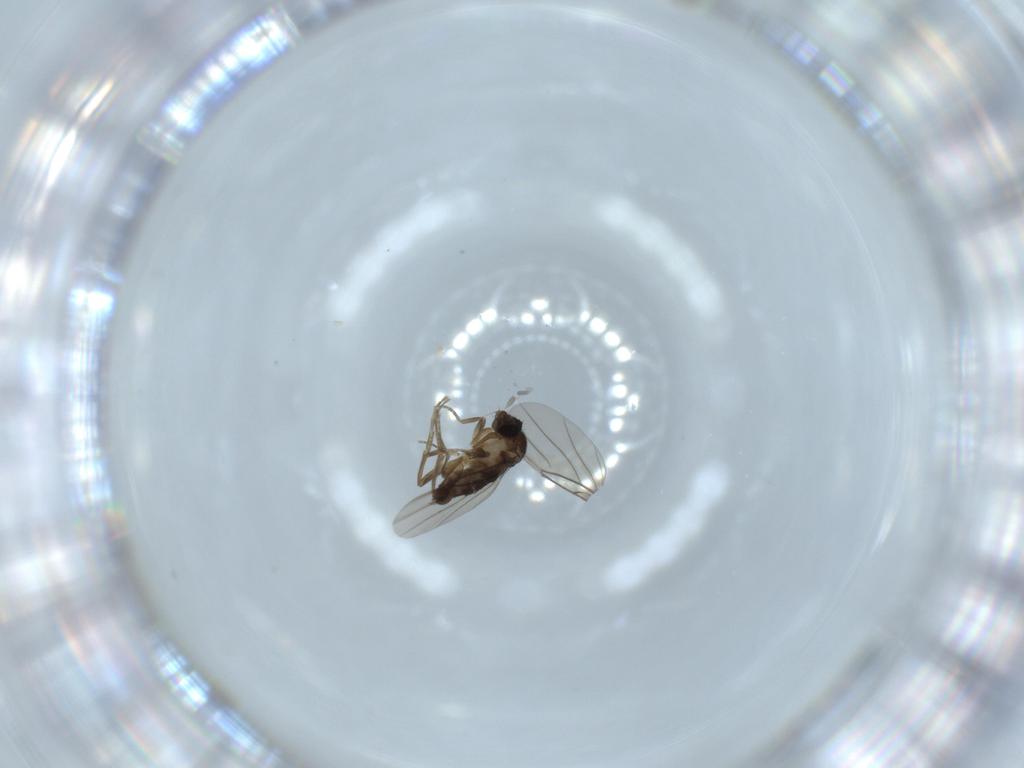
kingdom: Animalia
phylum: Arthropoda
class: Insecta
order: Diptera
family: Phoridae
